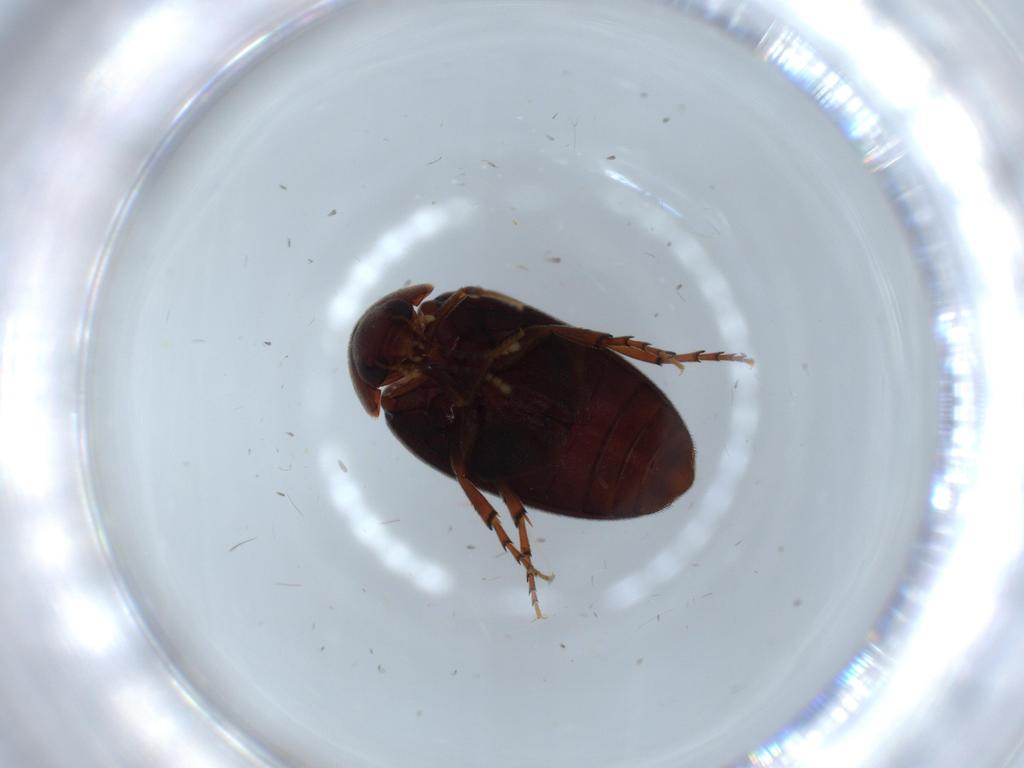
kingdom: Animalia
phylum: Arthropoda
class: Insecta
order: Coleoptera
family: Eucinetidae
